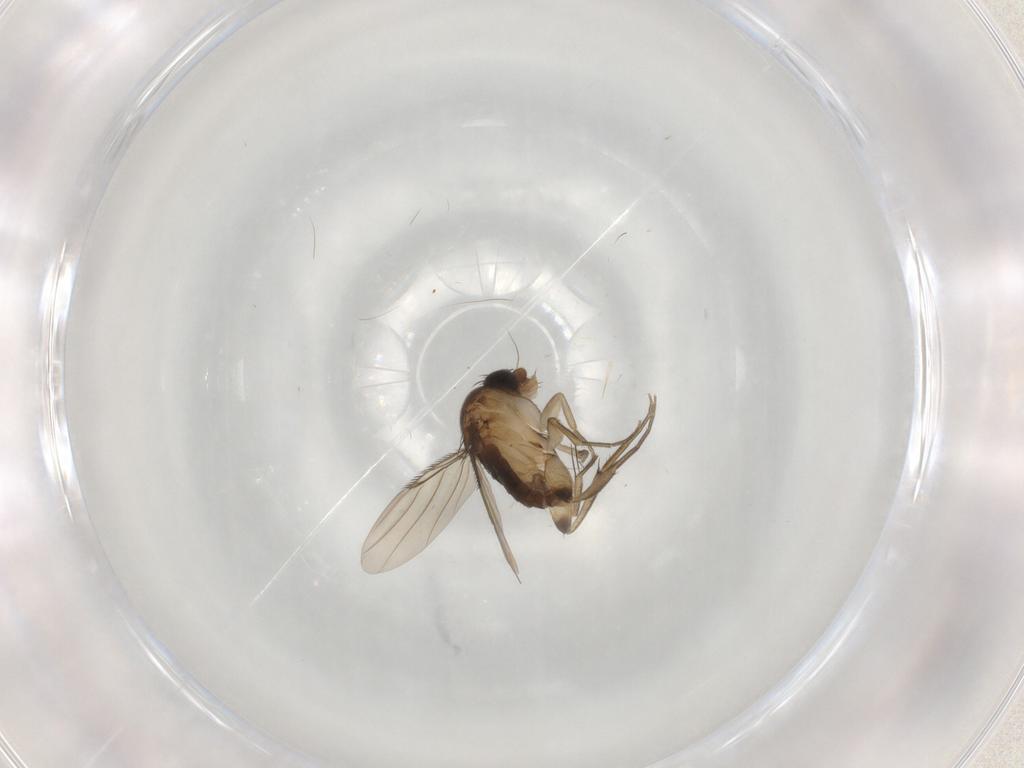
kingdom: Animalia
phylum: Arthropoda
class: Insecta
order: Diptera
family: Phoridae
